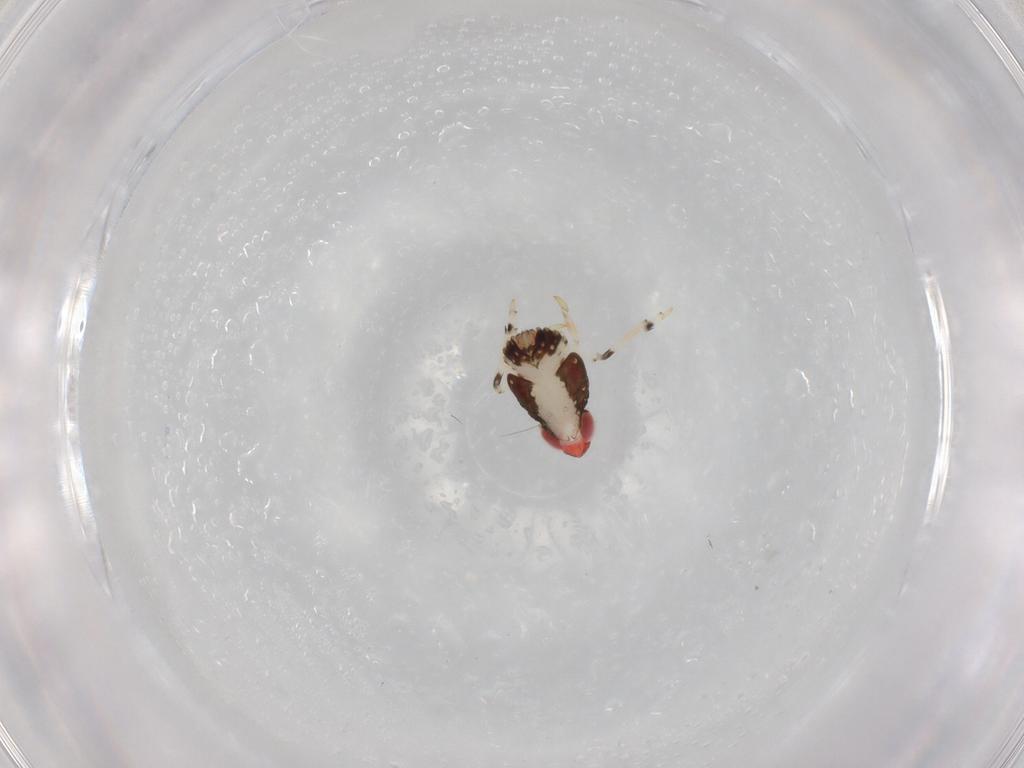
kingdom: Animalia
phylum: Arthropoda
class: Insecta
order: Hemiptera
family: Fulgoroidea_incertae_sedis
